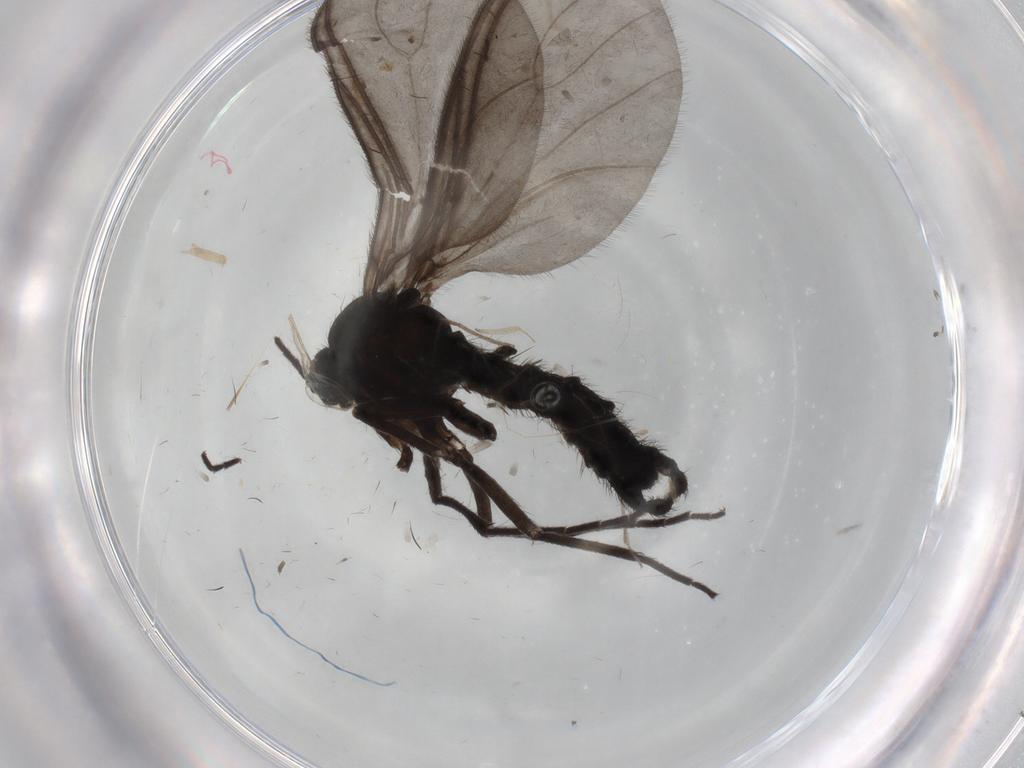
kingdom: Animalia
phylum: Arthropoda
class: Insecta
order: Diptera
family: Sciaridae
